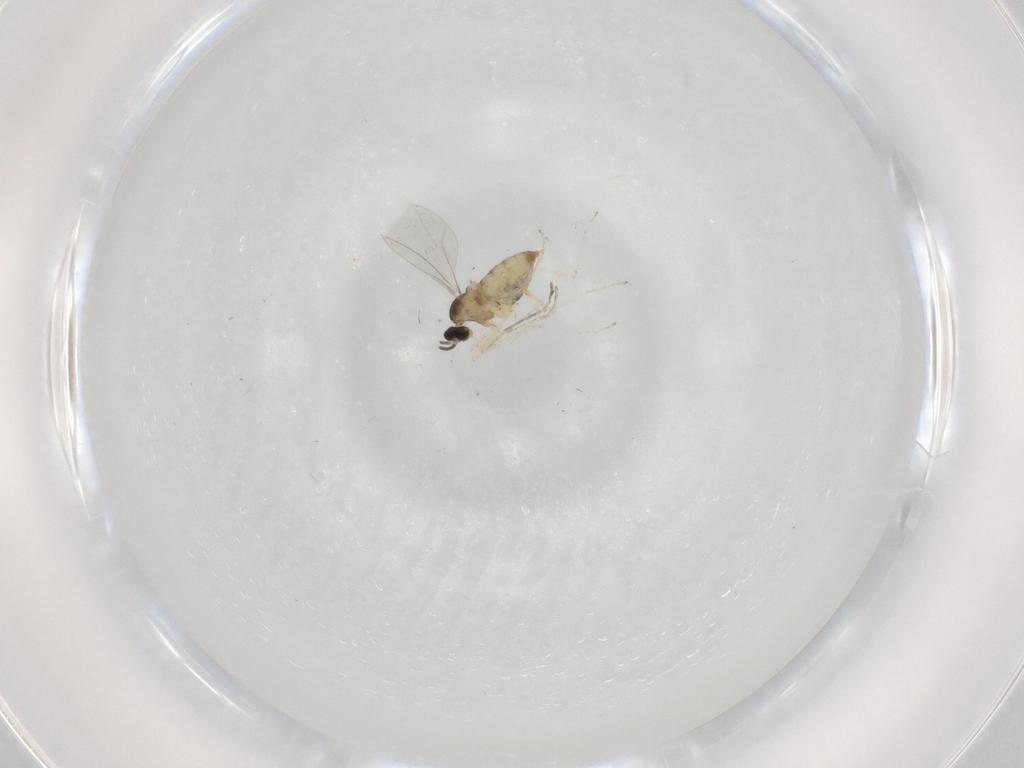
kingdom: Animalia
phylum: Arthropoda
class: Insecta
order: Diptera
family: Cecidomyiidae
